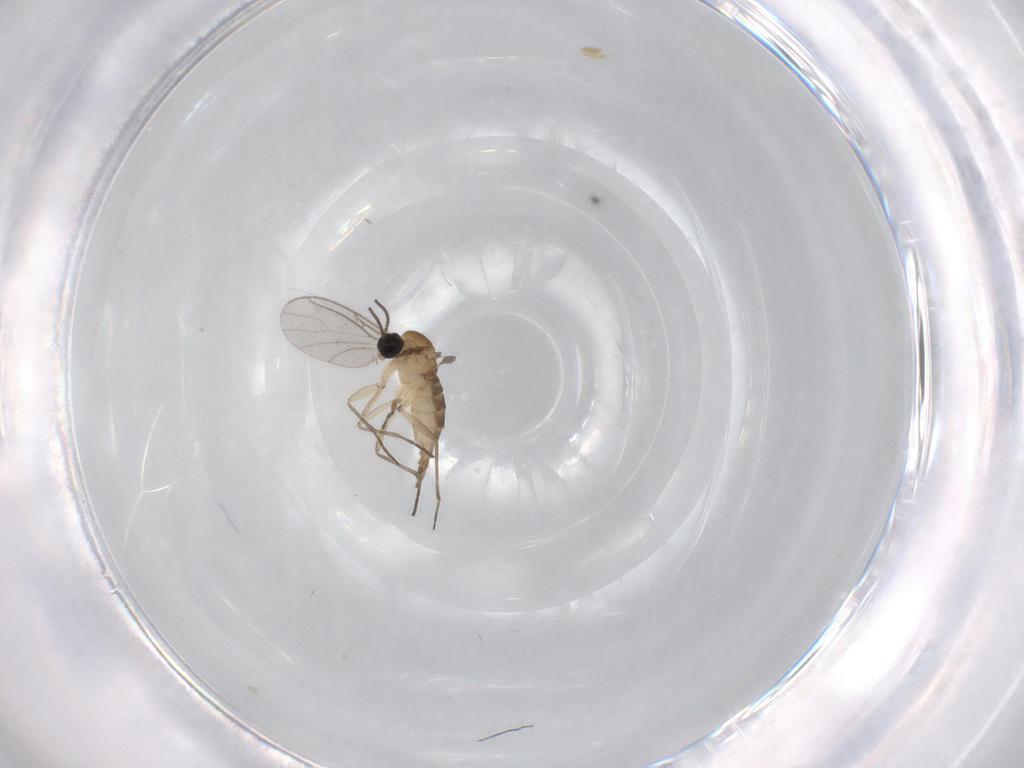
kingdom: Animalia
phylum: Arthropoda
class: Insecta
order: Diptera
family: Sciaridae
